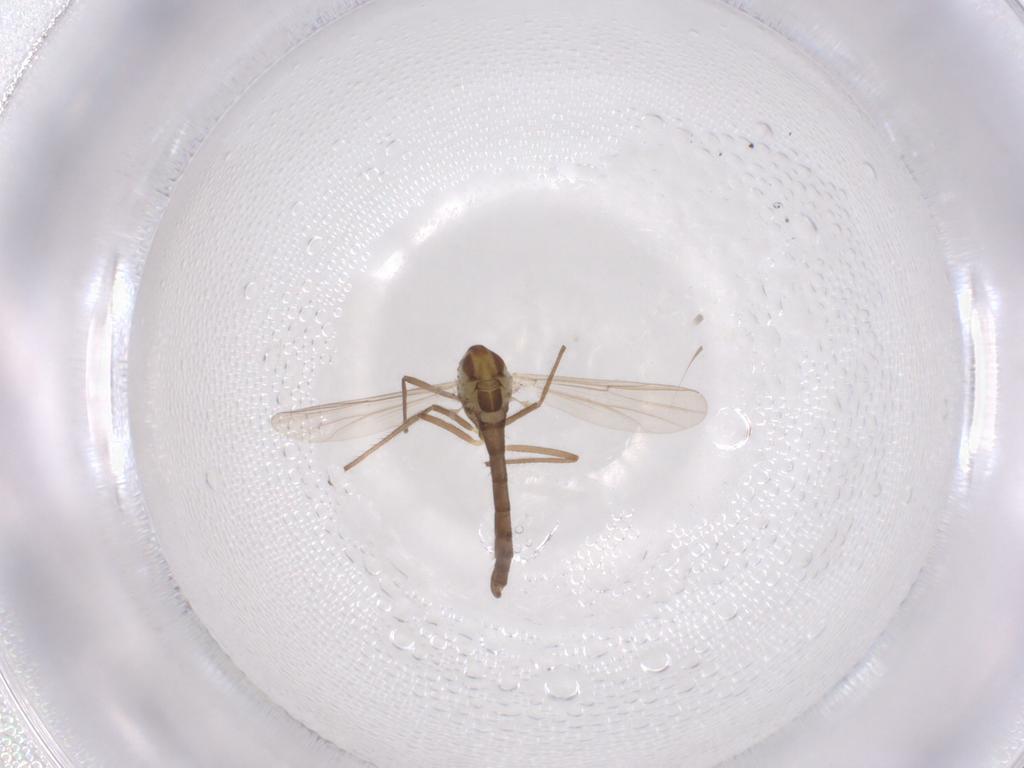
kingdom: Animalia
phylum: Arthropoda
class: Insecta
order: Diptera
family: Chironomidae
